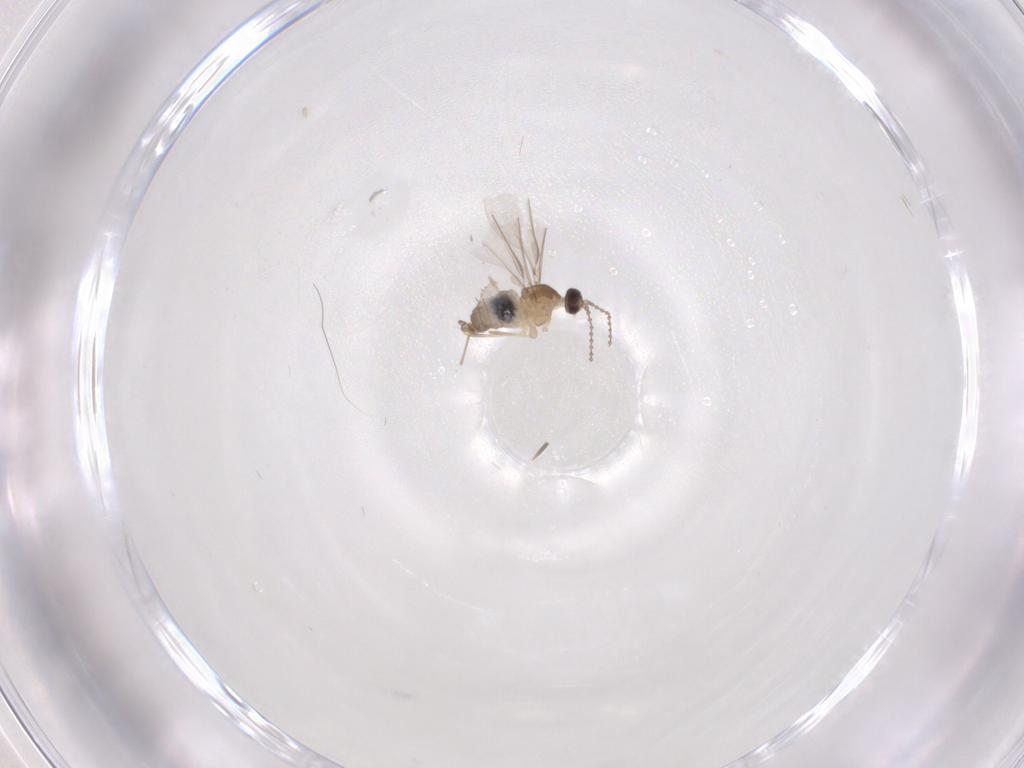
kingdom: Animalia
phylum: Arthropoda
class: Insecta
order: Diptera
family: Cecidomyiidae
